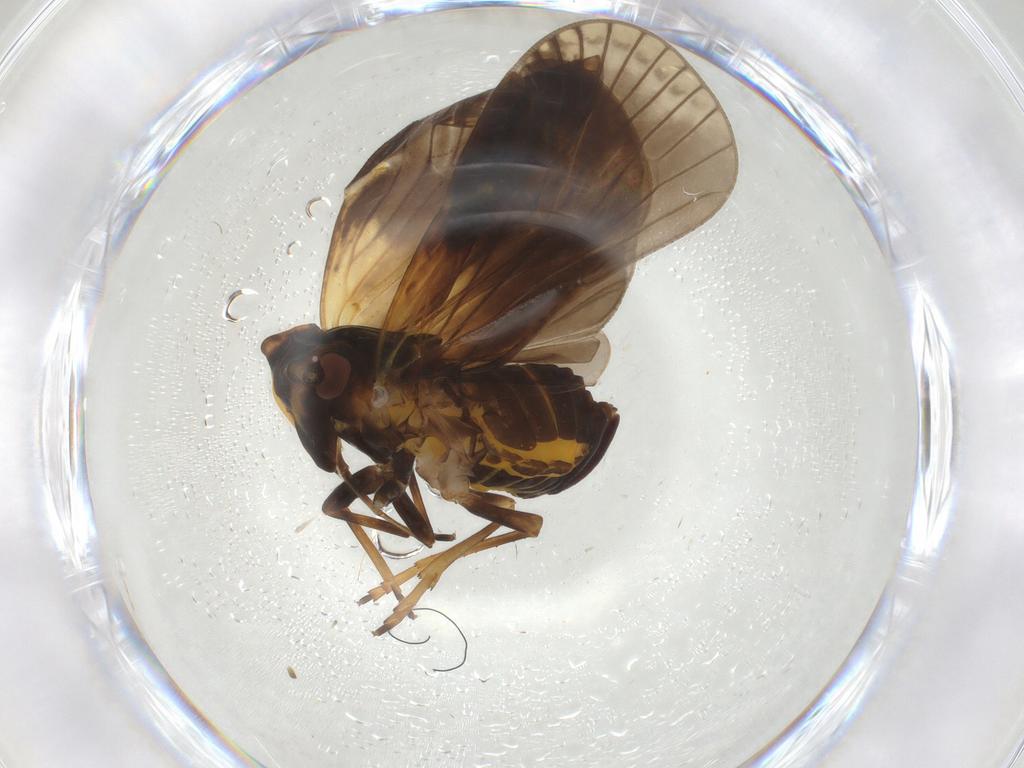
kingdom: Animalia
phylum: Arthropoda
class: Insecta
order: Hemiptera
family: Cixiidae
